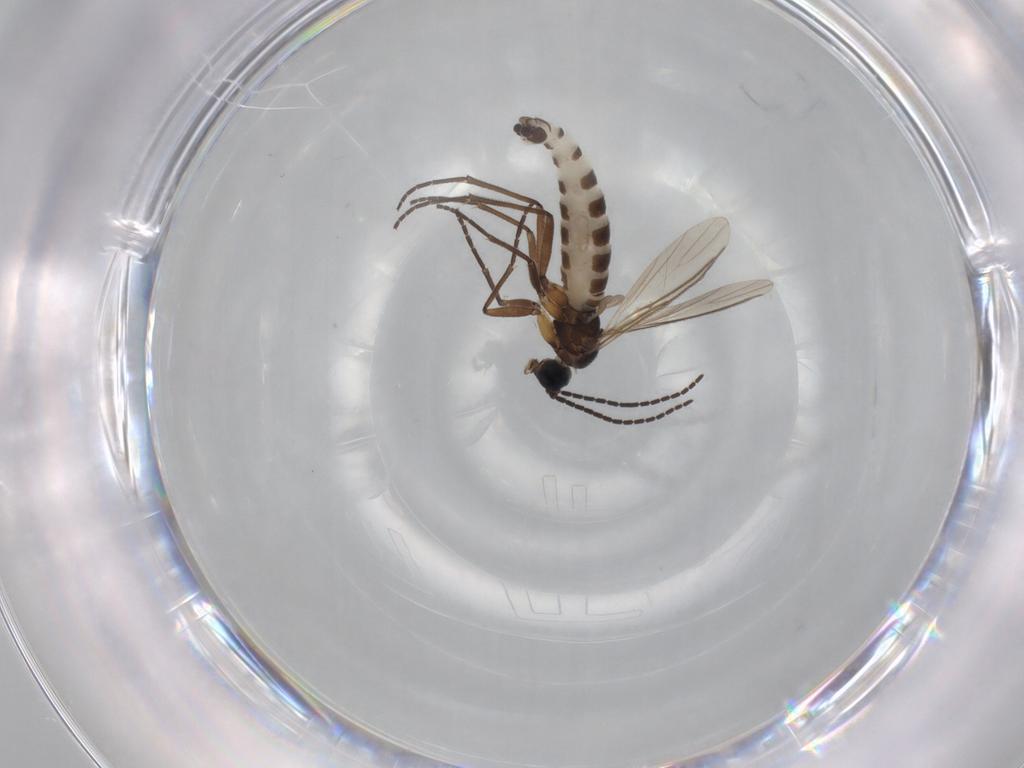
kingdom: Animalia
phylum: Arthropoda
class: Insecta
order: Diptera
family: Sciaridae
